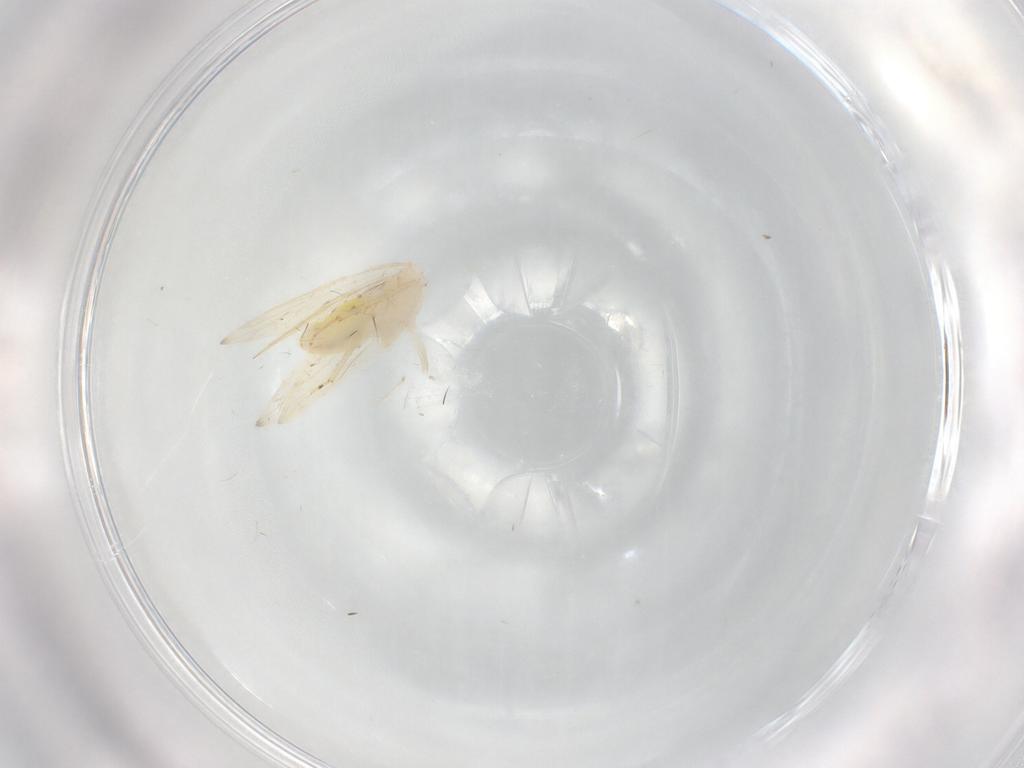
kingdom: Animalia
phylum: Arthropoda
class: Insecta
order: Psocodea
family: Lepidopsocidae
